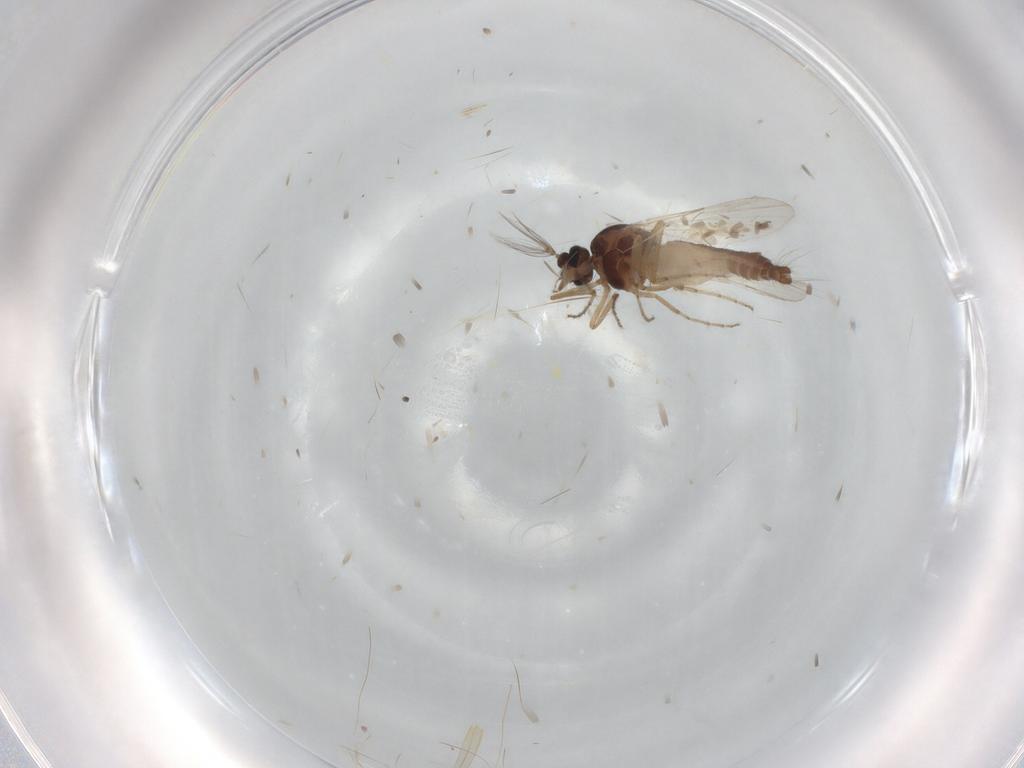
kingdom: Animalia
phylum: Arthropoda
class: Insecta
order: Diptera
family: Ceratopogonidae
